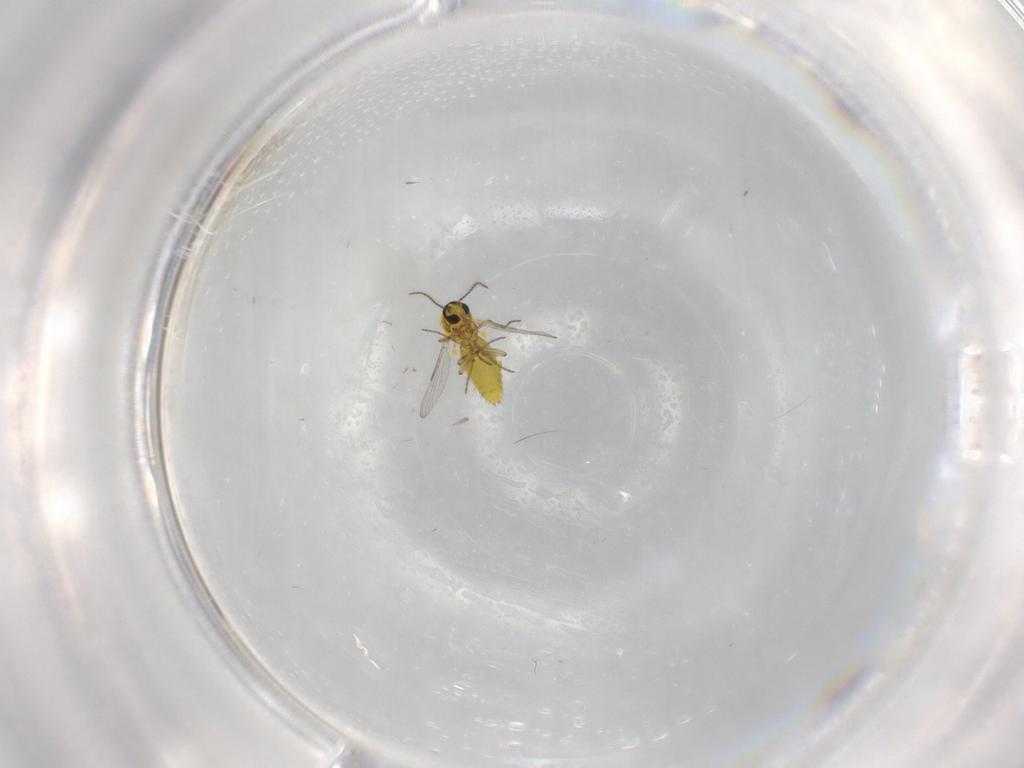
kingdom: Animalia
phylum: Arthropoda
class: Insecta
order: Diptera
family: Ceratopogonidae
